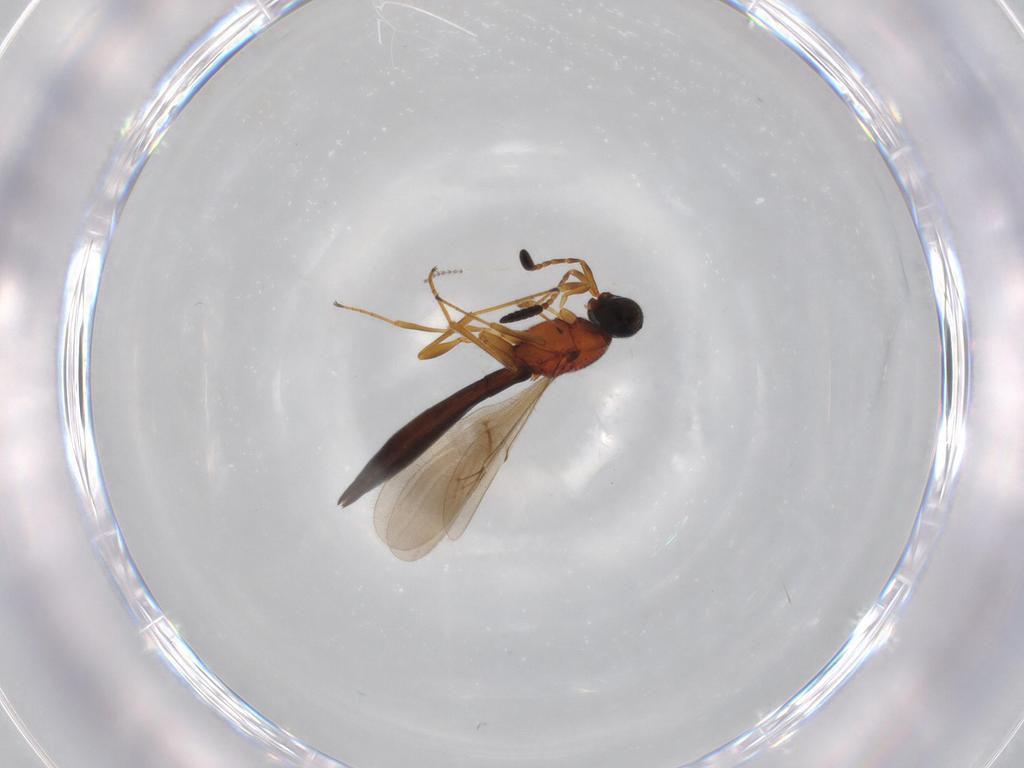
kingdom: Animalia
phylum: Arthropoda
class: Insecta
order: Hymenoptera
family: Scelionidae
